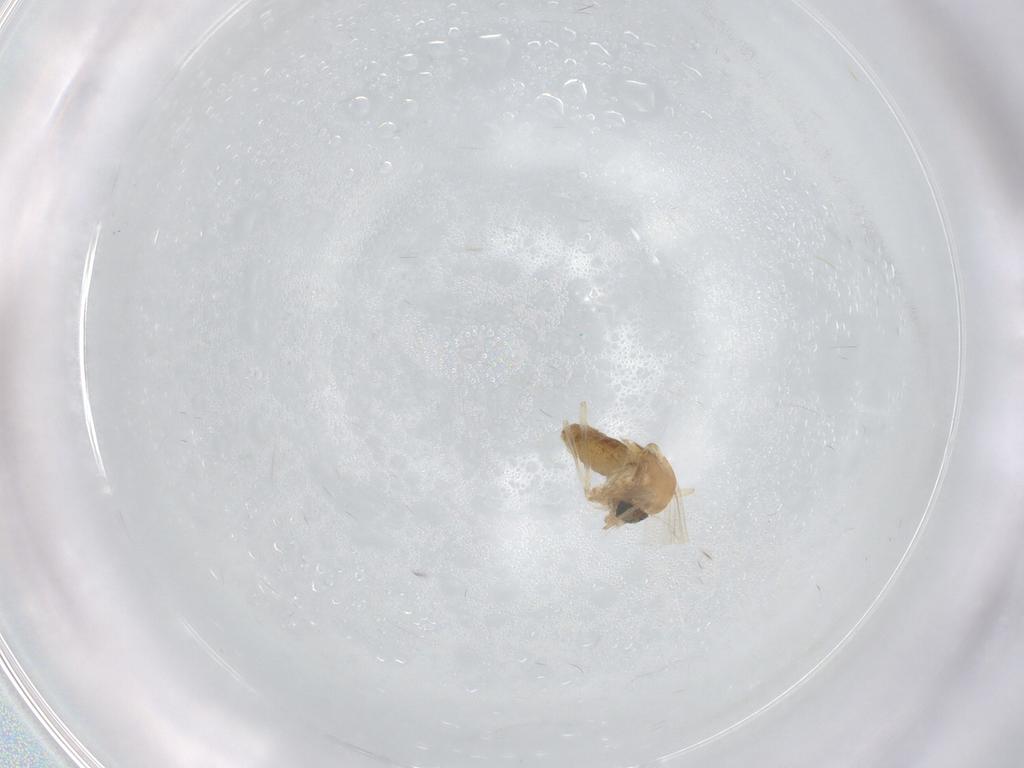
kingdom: Animalia
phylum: Arthropoda
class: Insecta
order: Diptera
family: Chironomidae
